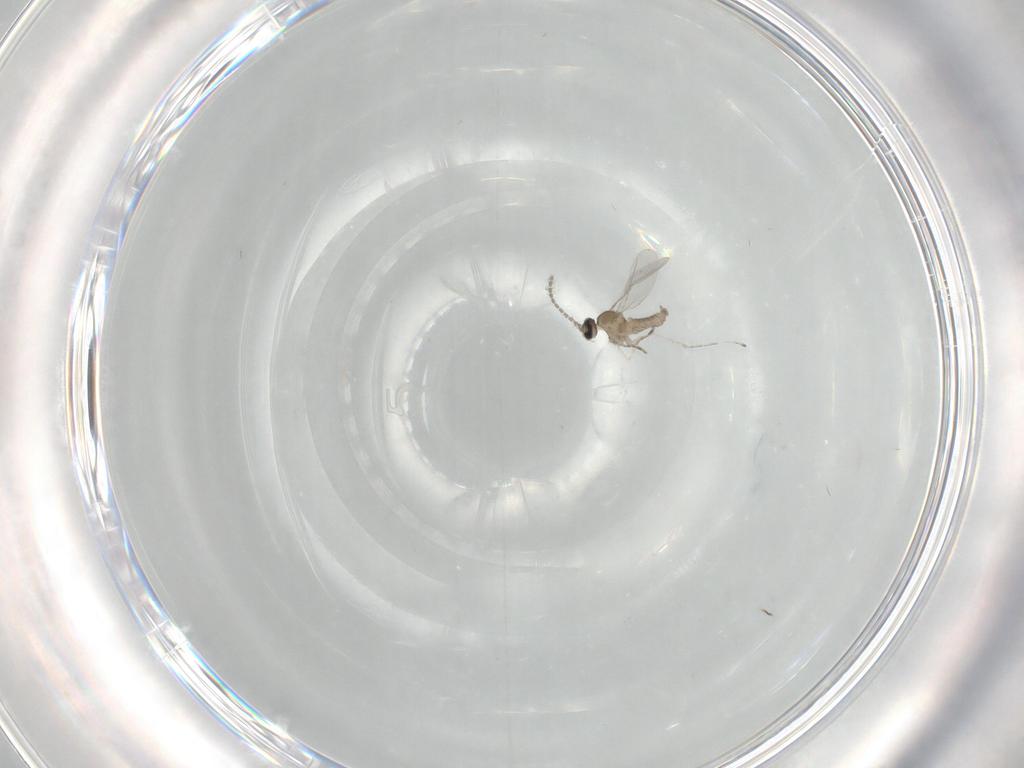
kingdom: Animalia
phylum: Arthropoda
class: Insecta
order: Diptera
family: Cecidomyiidae
